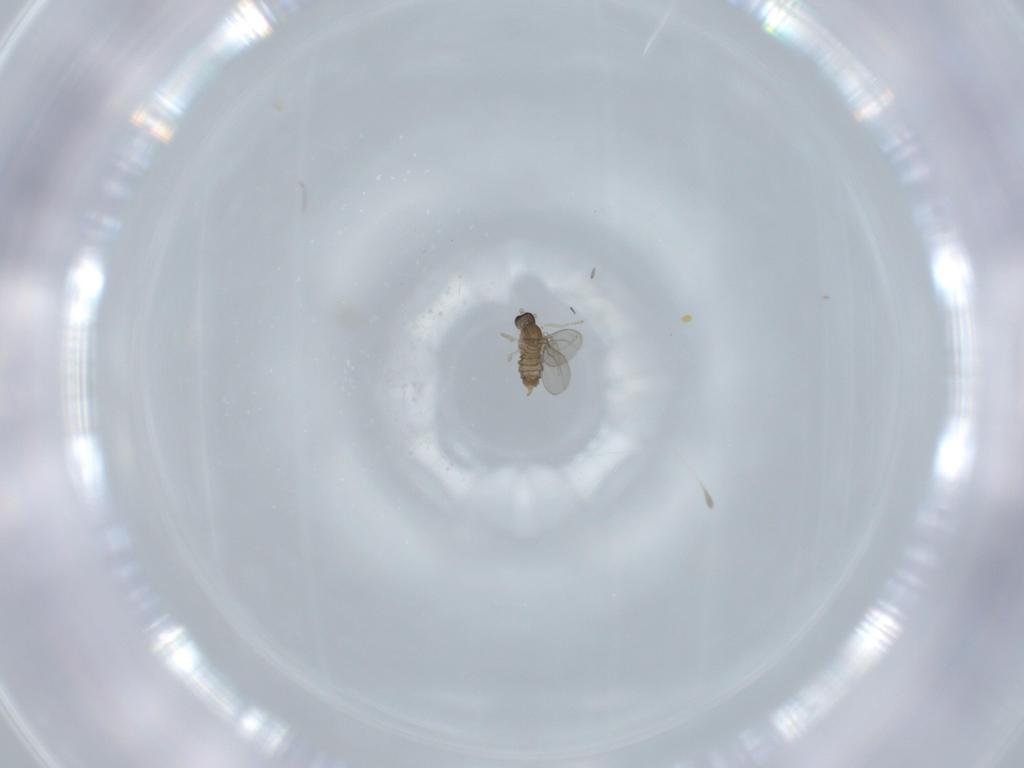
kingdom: Animalia
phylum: Arthropoda
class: Insecta
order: Diptera
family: Cecidomyiidae
